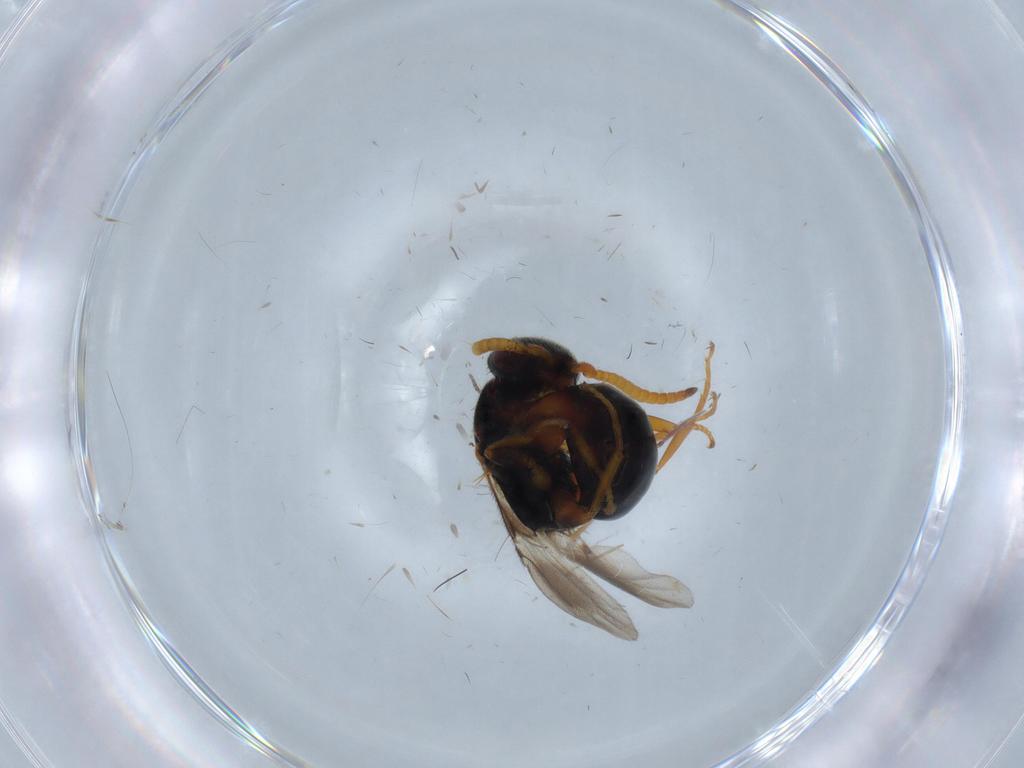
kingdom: Animalia
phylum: Arthropoda
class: Insecta
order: Hymenoptera
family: Bethylidae
